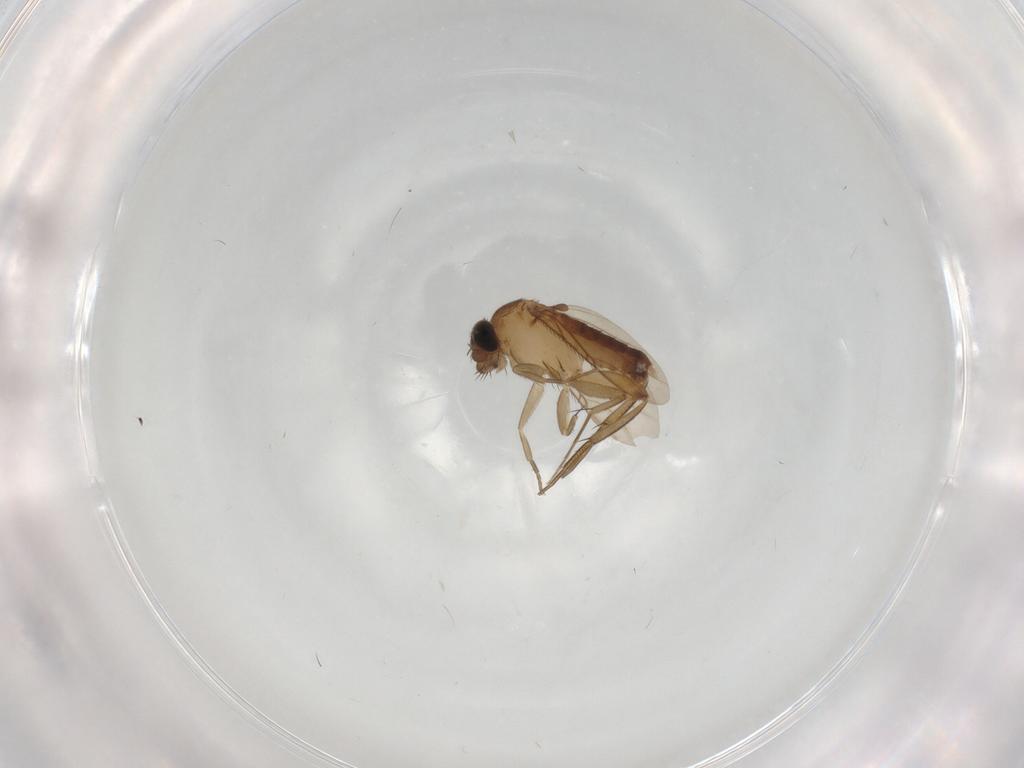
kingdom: Animalia
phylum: Arthropoda
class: Insecta
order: Diptera
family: Phoridae
